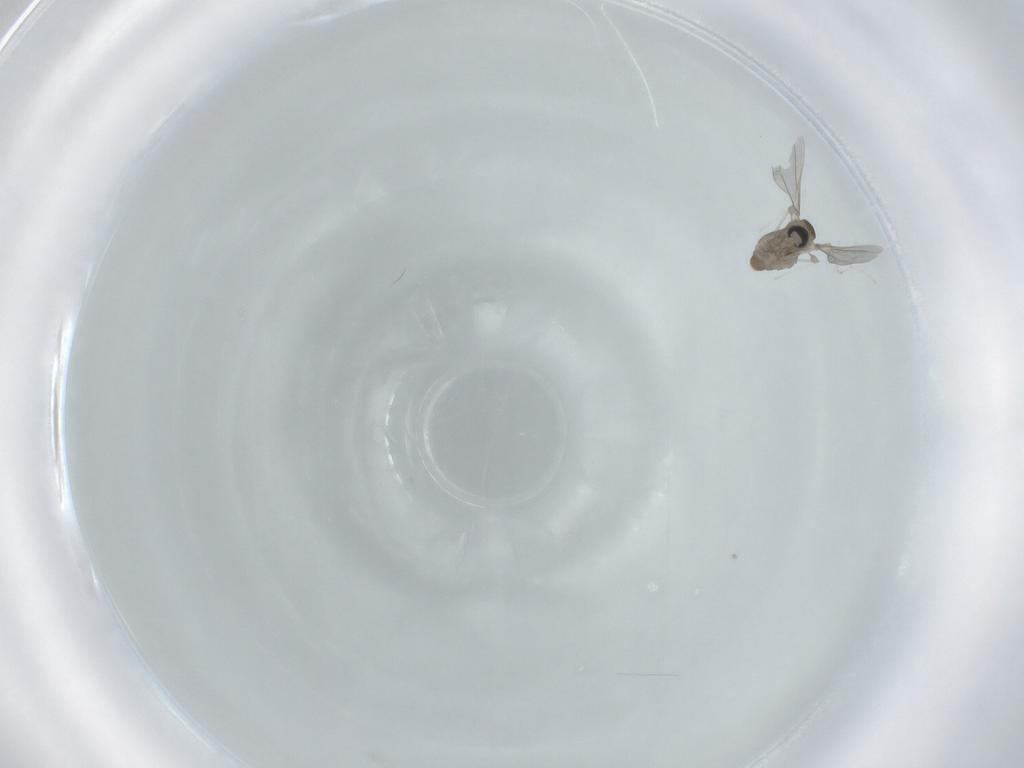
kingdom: Animalia
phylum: Arthropoda
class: Insecta
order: Diptera
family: Cecidomyiidae
